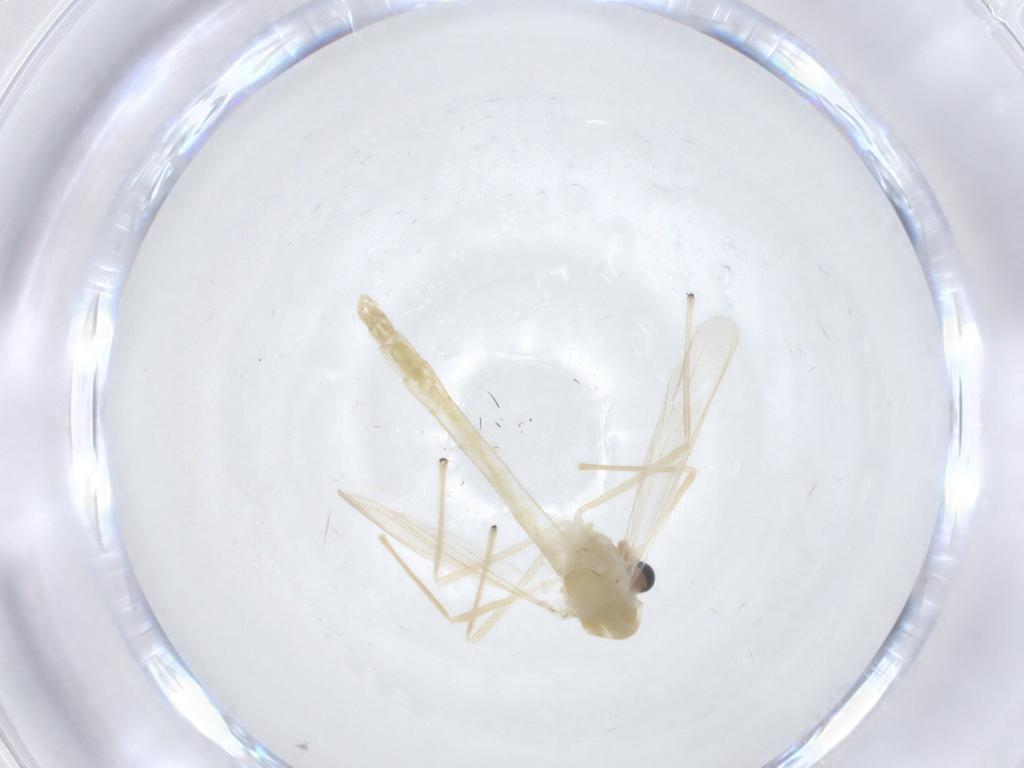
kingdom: Animalia
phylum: Arthropoda
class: Insecta
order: Diptera
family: Chironomidae
